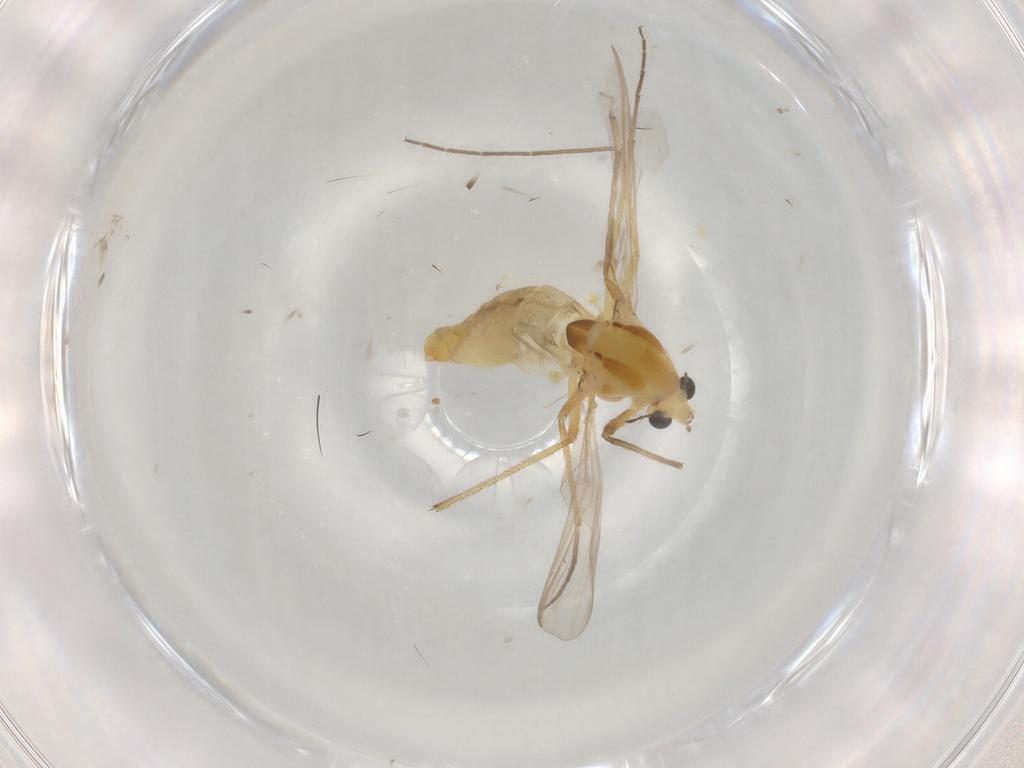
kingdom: Animalia
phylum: Arthropoda
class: Insecta
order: Diptera
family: Chironomidae
